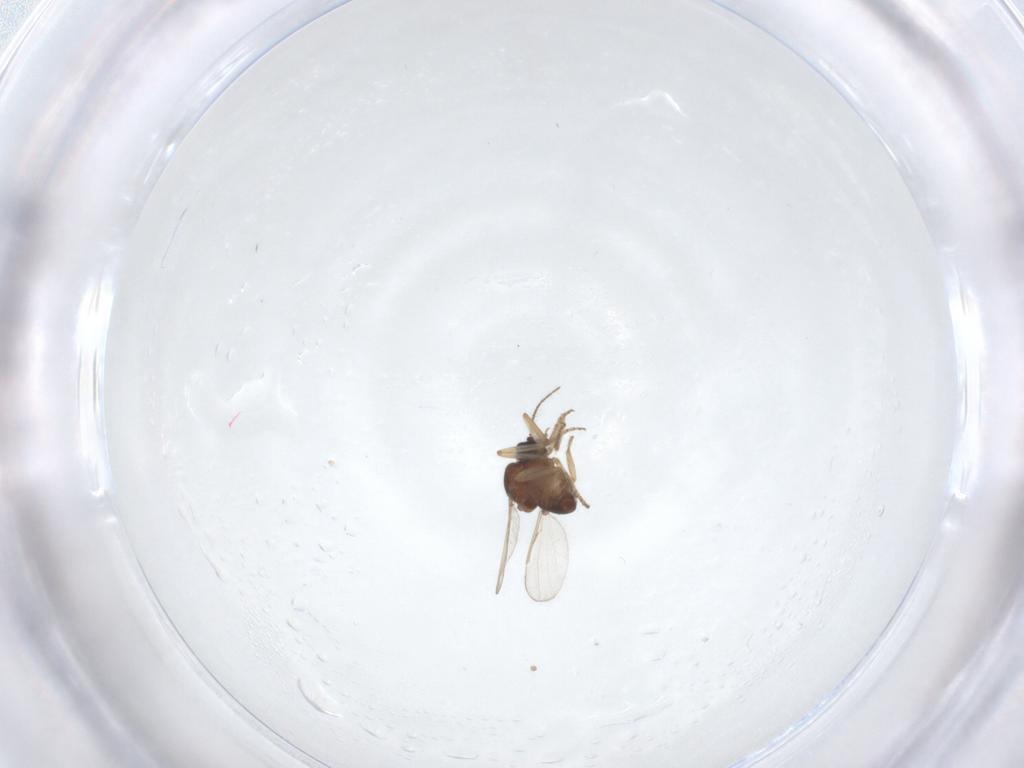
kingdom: Animalia
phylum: Arthropoda
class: Insecta
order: Diptera
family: Ceratopogonidae
